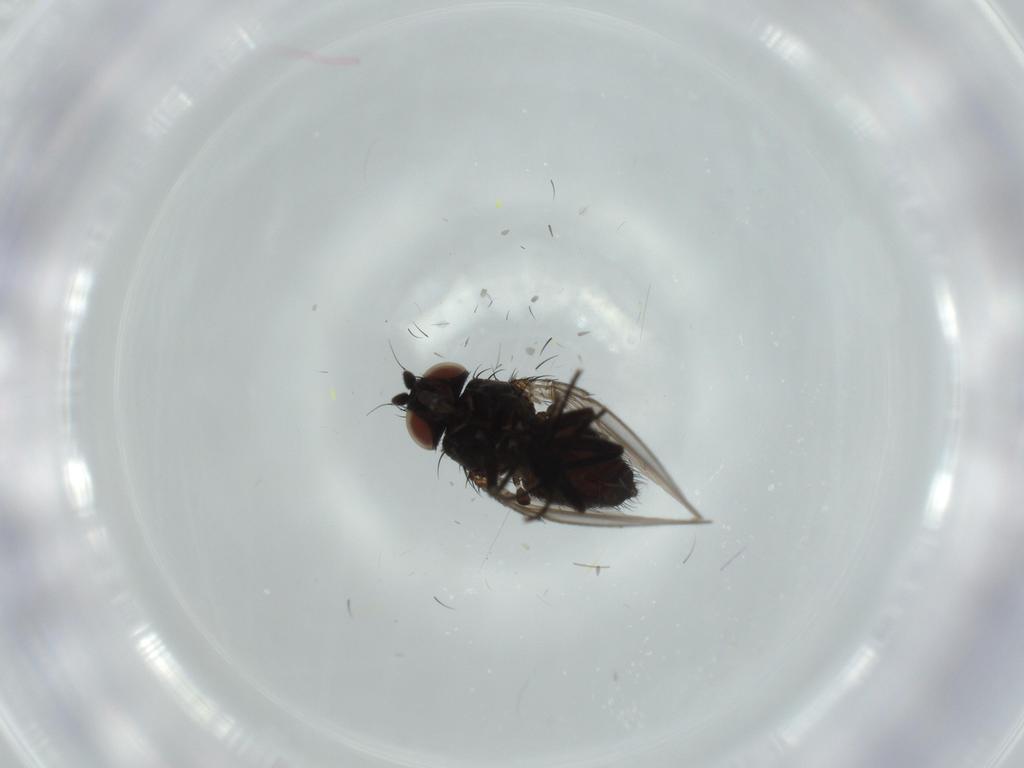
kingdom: Animalia
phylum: Arthropoda
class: Insecta
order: Diptera
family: Milichiidae
